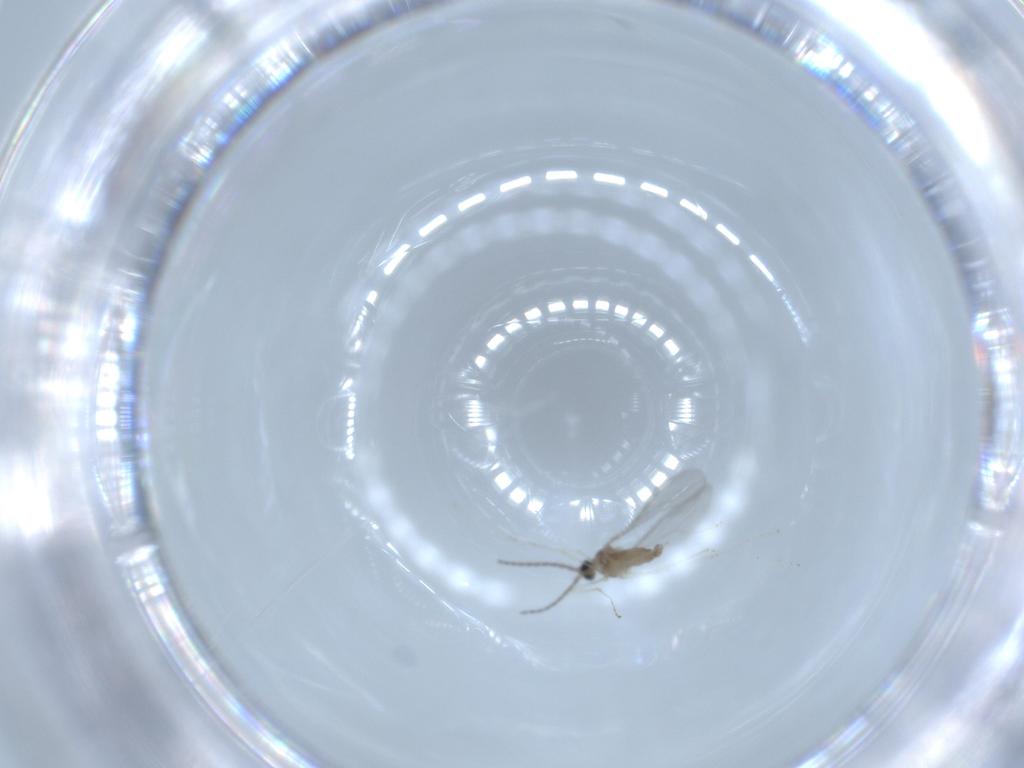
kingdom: Animalia
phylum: Arthropoda
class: Insecta
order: Diptera
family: Cecidomyiidae
